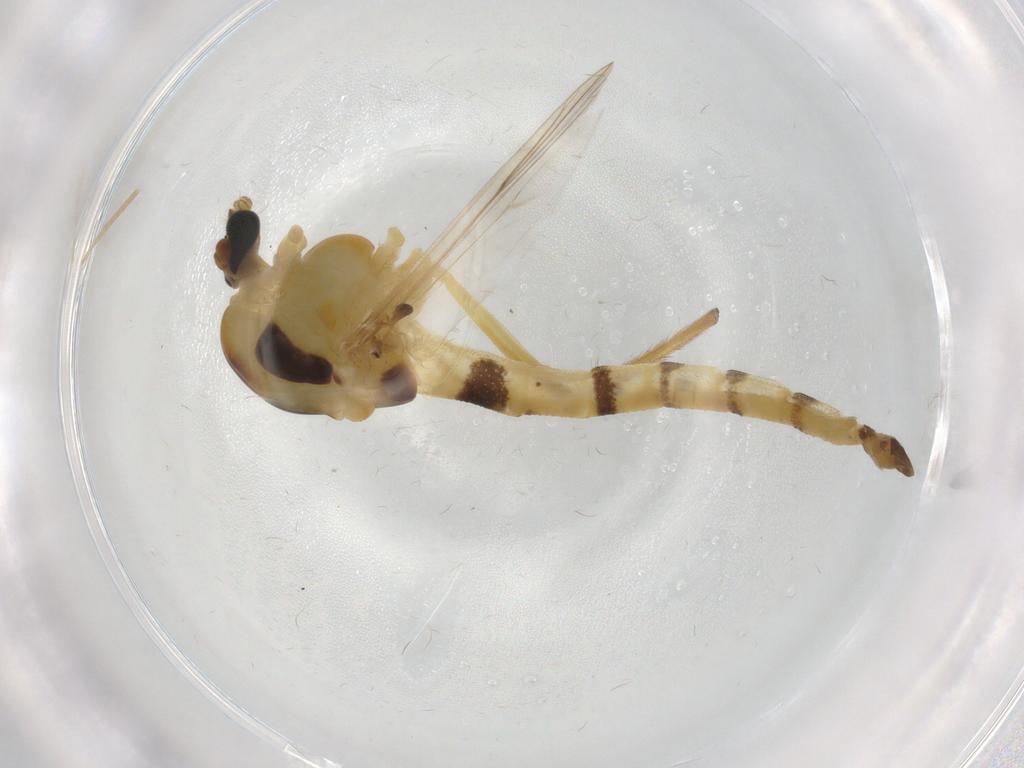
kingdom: Animalia
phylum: Arthropoda
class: Insecta
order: Diptera
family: Chironomidae
